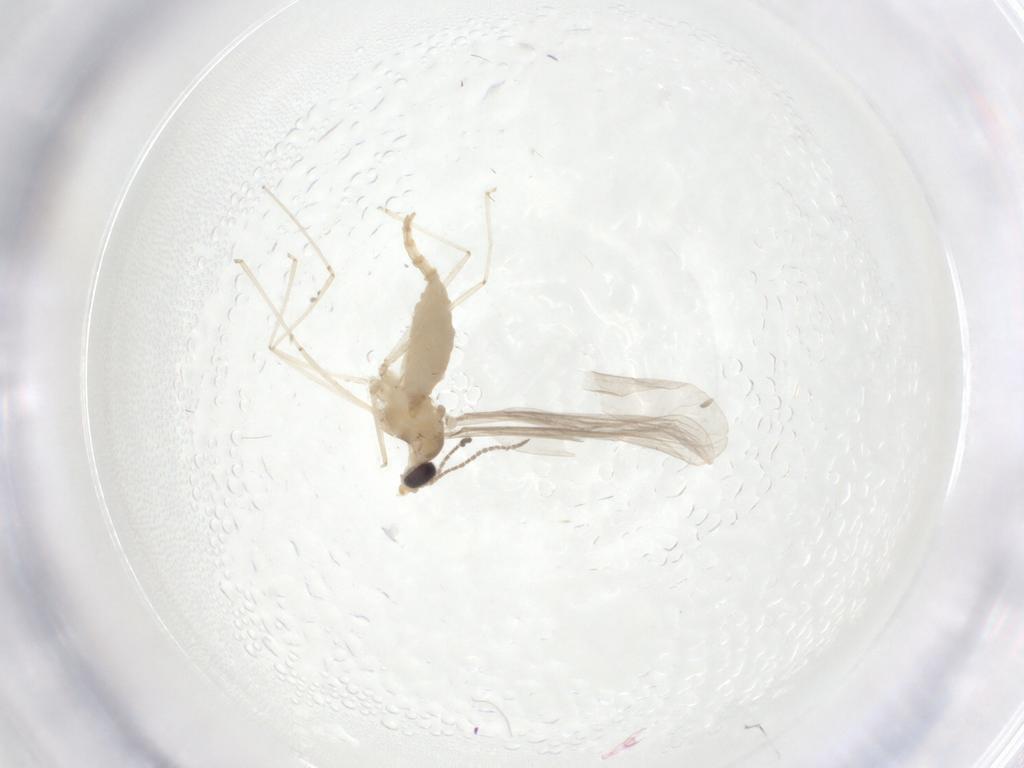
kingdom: Animalia
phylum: Arthropoda
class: Insecta
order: Diptera
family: Cecidomyiidae
